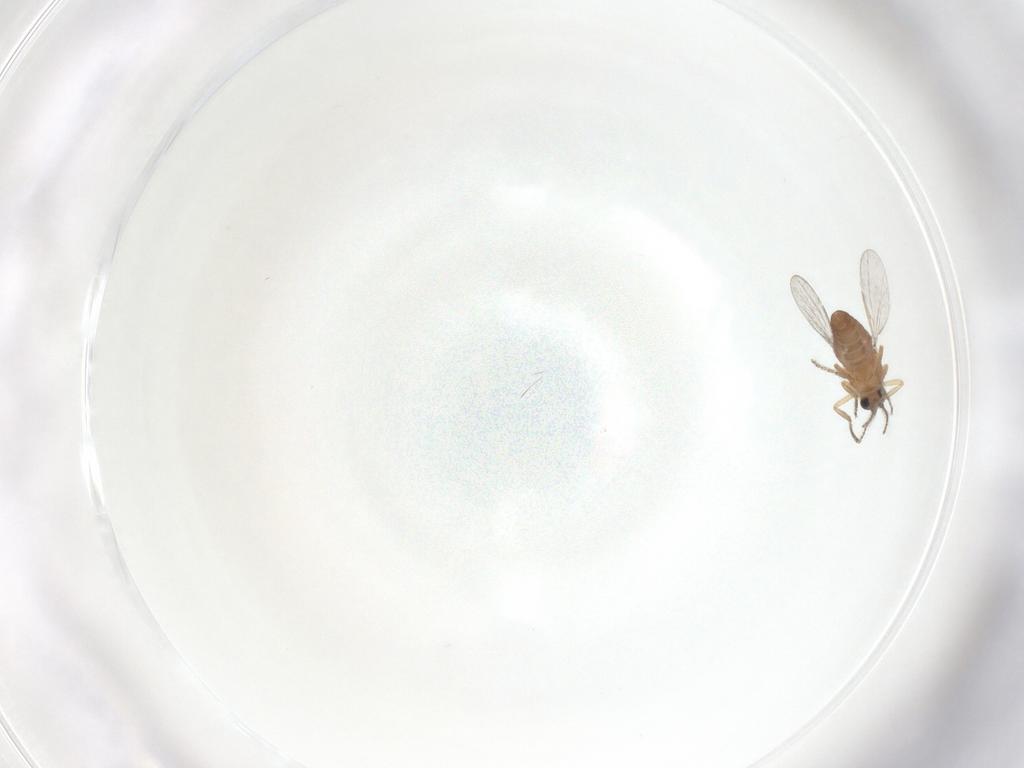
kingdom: Animalia
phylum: Arthropoda
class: Insecta
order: Diptera
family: Ceratopogonidae
